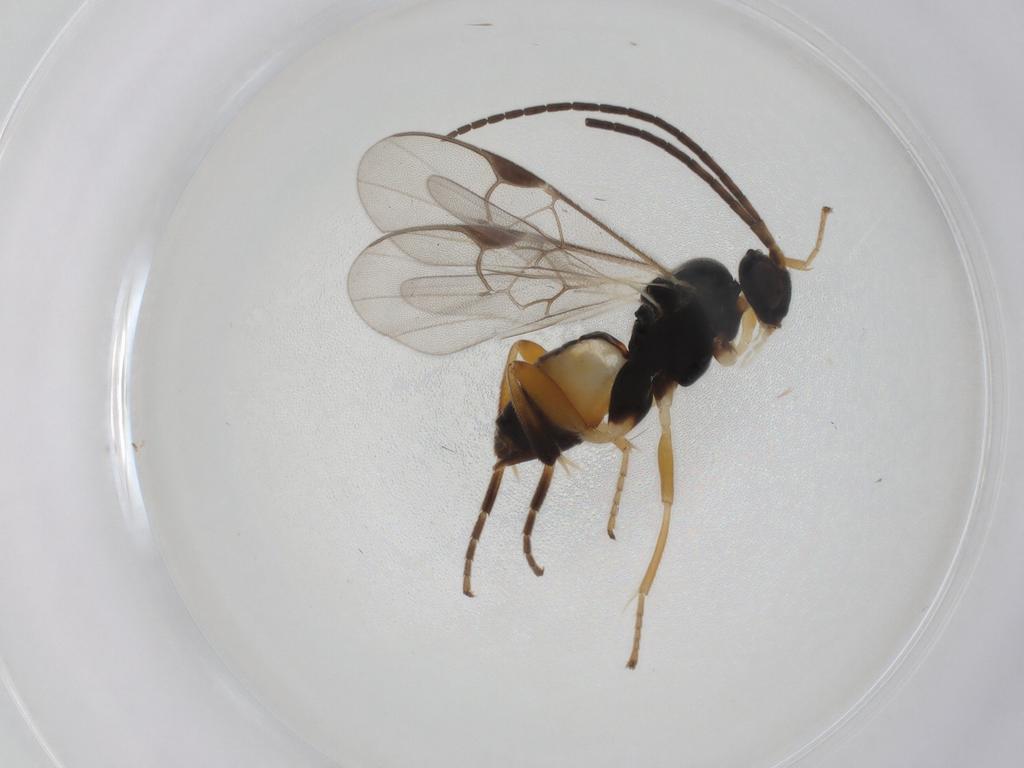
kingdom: Animalia
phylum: Arthropoda
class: Insecta
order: Hymenoptera
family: Braconidae
